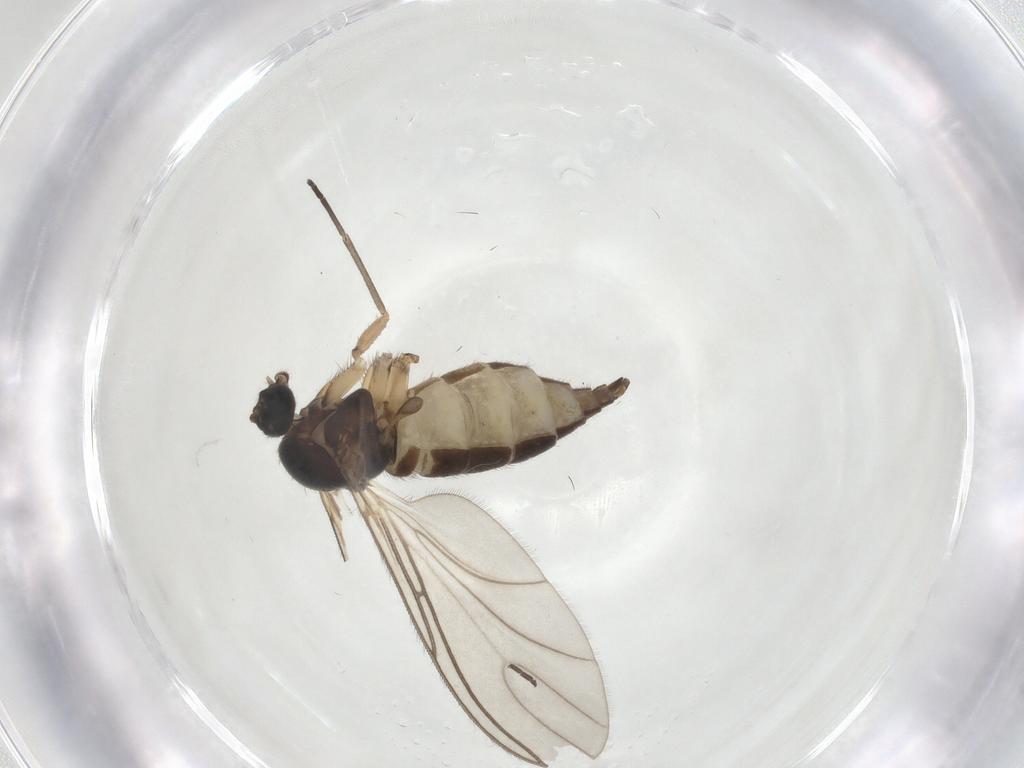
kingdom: Animalia
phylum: Arthropoda
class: Insecta
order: Diptera
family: Sciaridae
